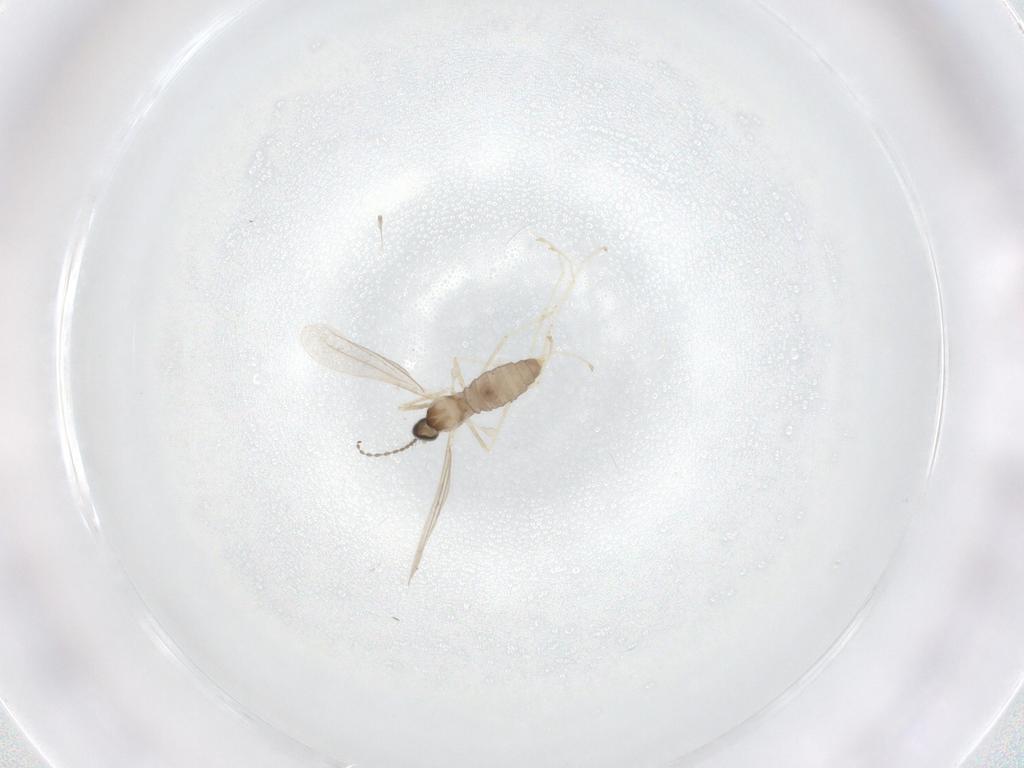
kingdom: Animalia
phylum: Arthropoda
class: Insecta
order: Diptera
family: Cecidomyiidae
